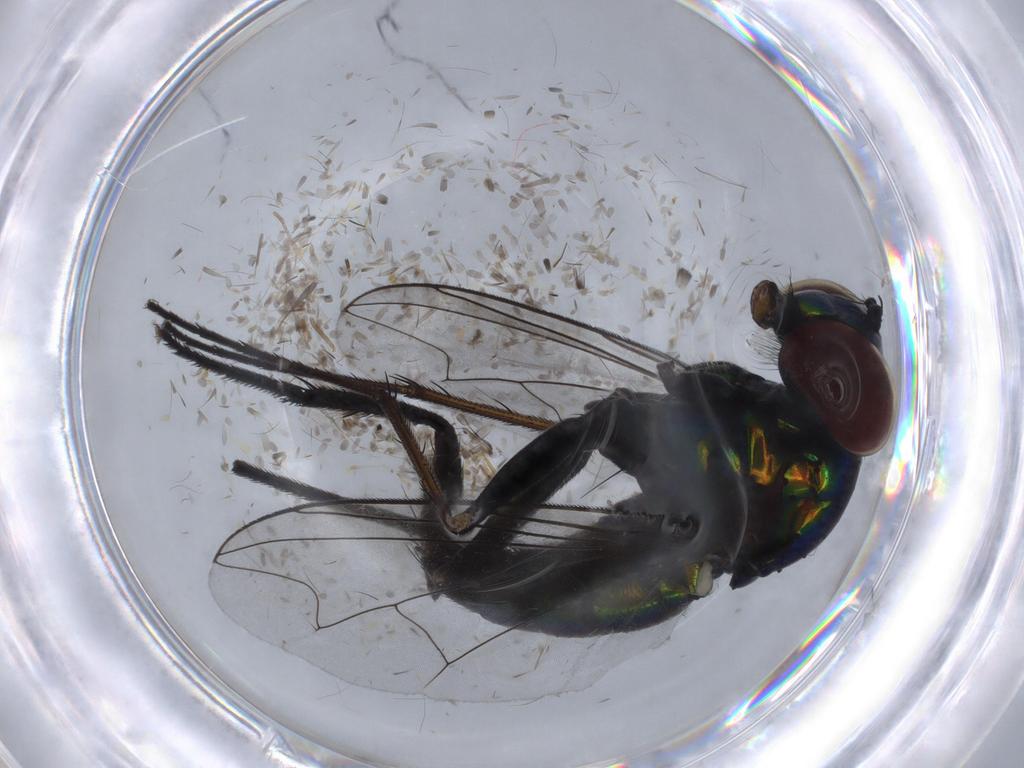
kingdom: Animalia
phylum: Arthropoda
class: Insecta
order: Diptera
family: Dolichopodidae
